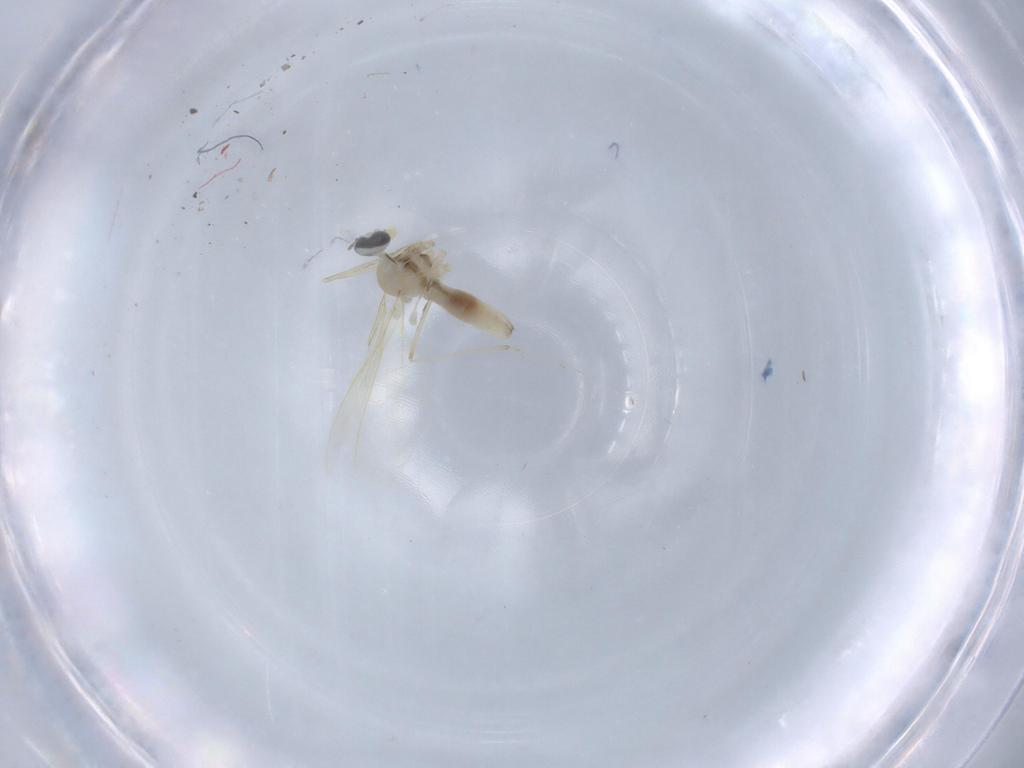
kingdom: Animalia
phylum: Arthropoda
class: Insecta
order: Diptera
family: Cecidomyiidae
